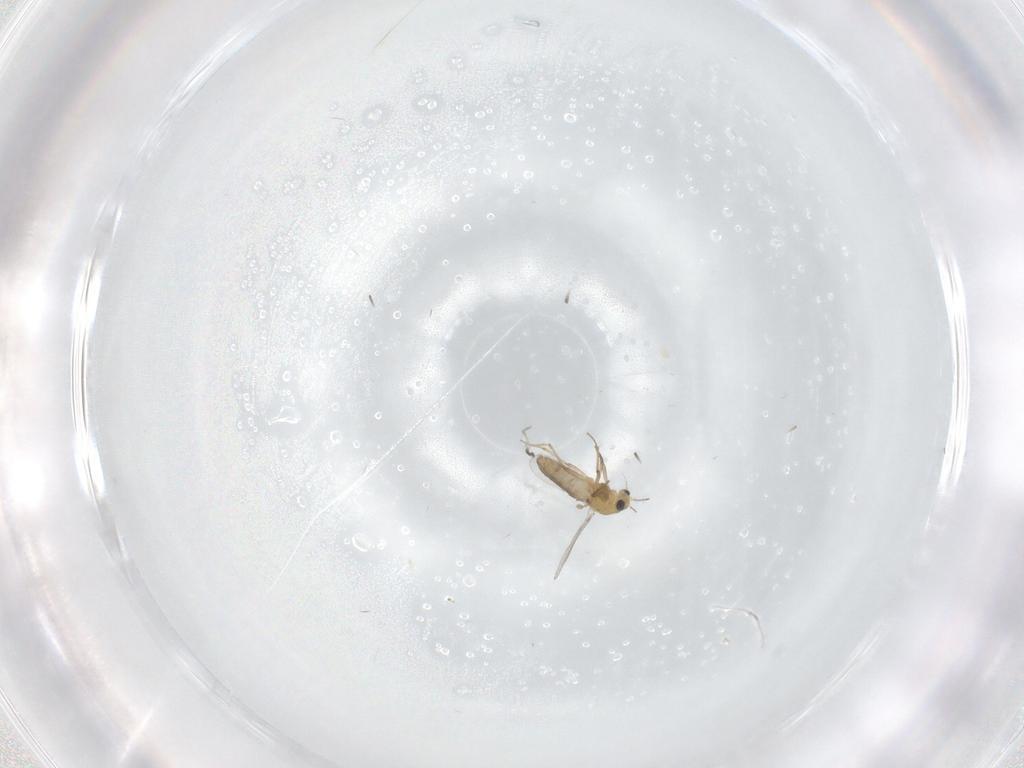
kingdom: Animalia
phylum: Arthropoda
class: Insecta
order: Diptera
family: Chironomidae
